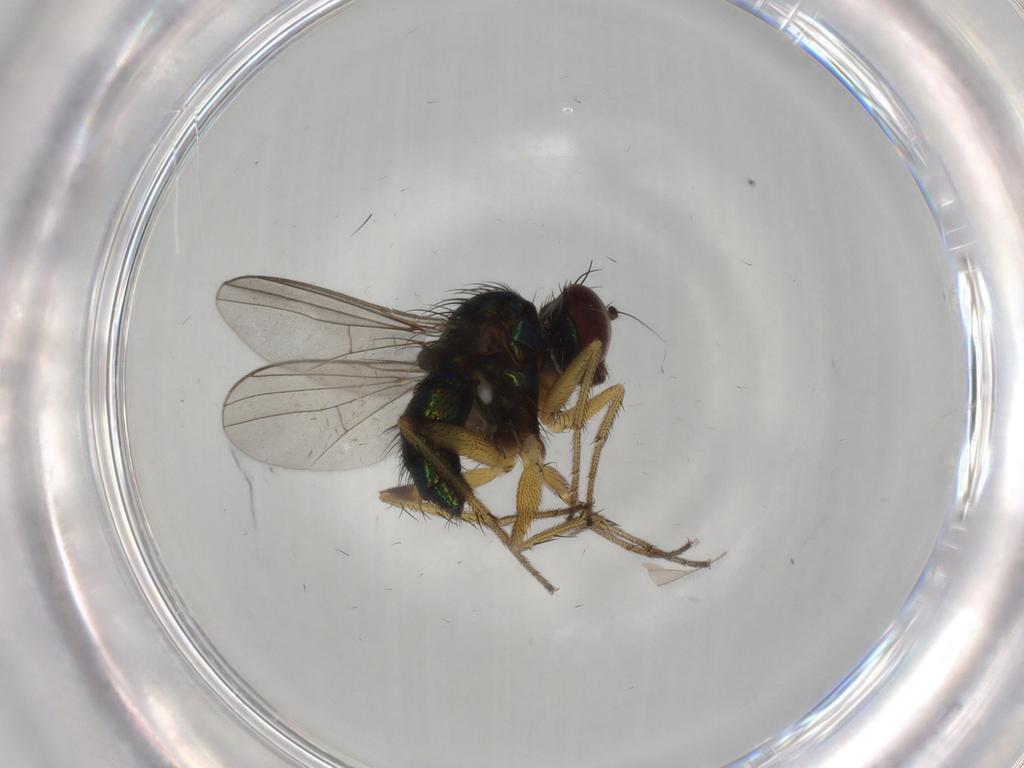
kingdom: Animalia
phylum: Arthropoda
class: Insecta
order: Diptera
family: Dolichopodidae
